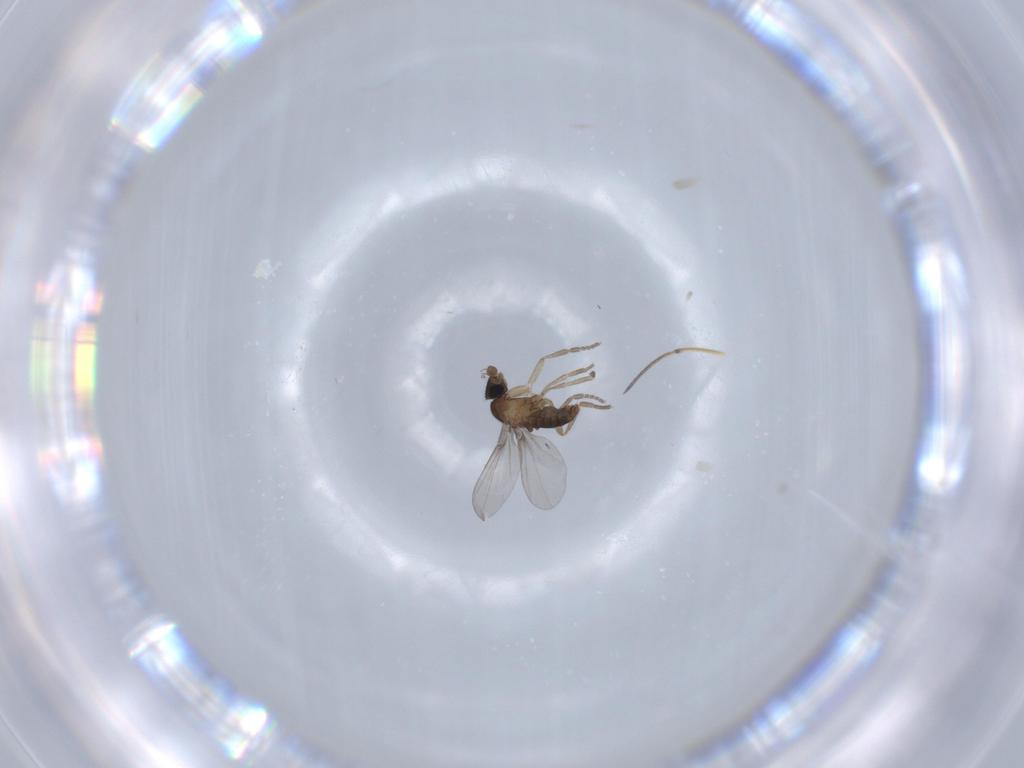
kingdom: Animalia
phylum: Arthropoda
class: Insecta
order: Diptera
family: Phoridae
